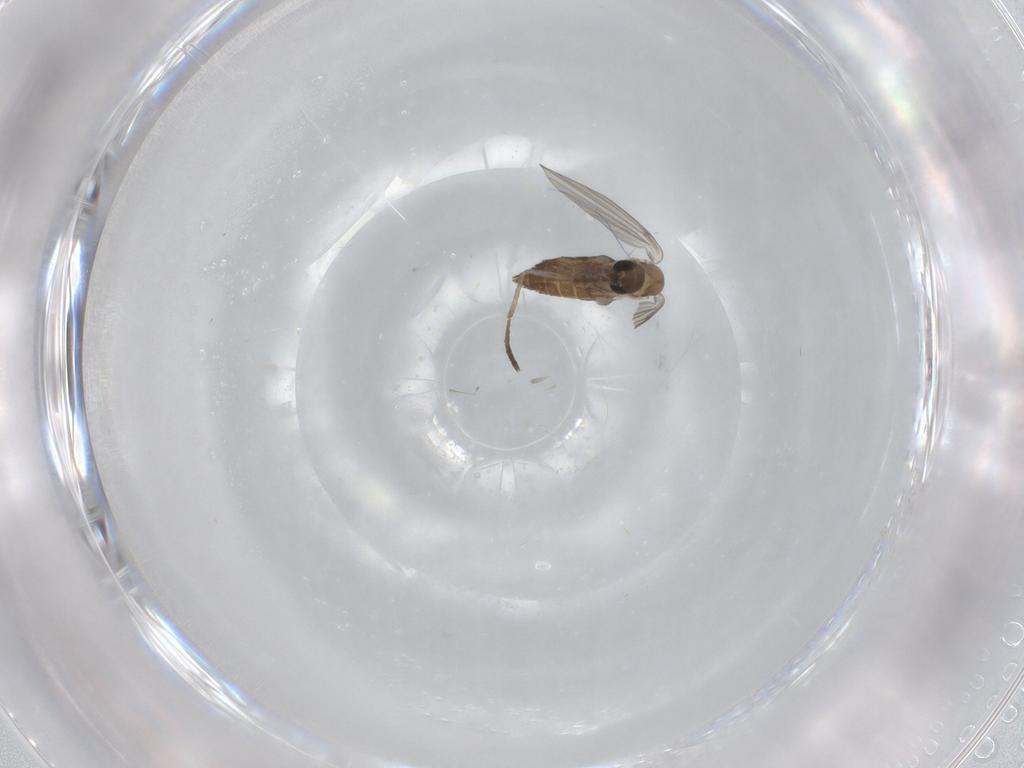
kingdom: Animalia
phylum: Arthropoda
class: Insecta
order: Diptera
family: Psychodidae
